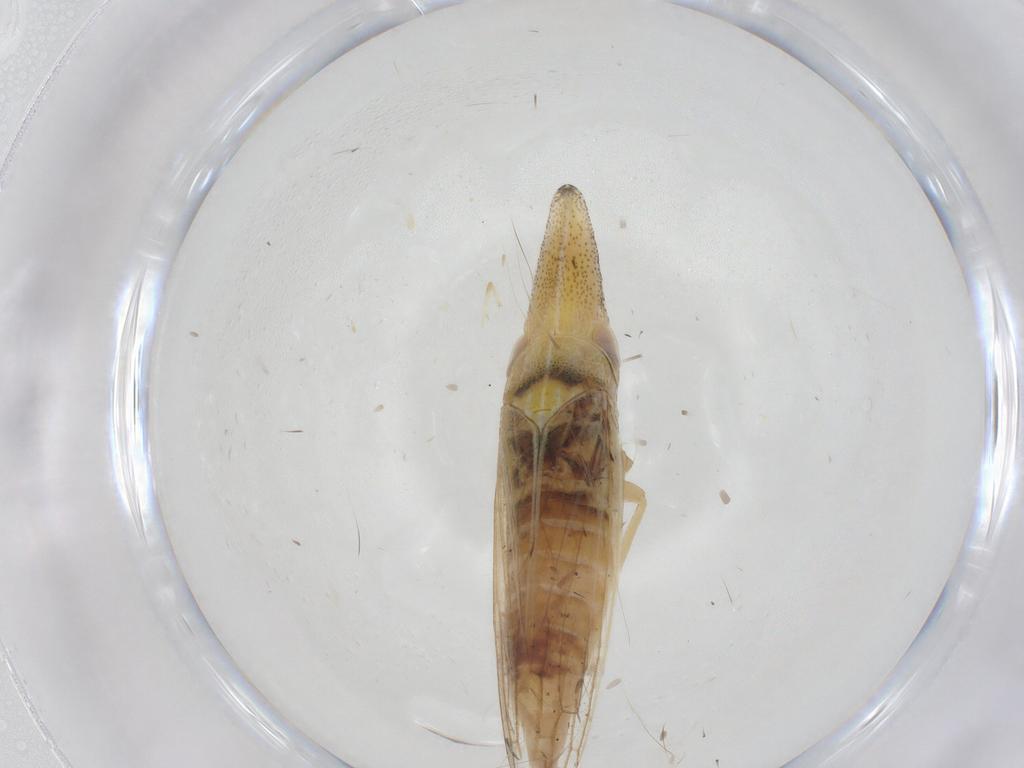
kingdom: Animalia
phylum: Arthropoda
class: Insecta
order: Hemiptera
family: Cicadellidae
